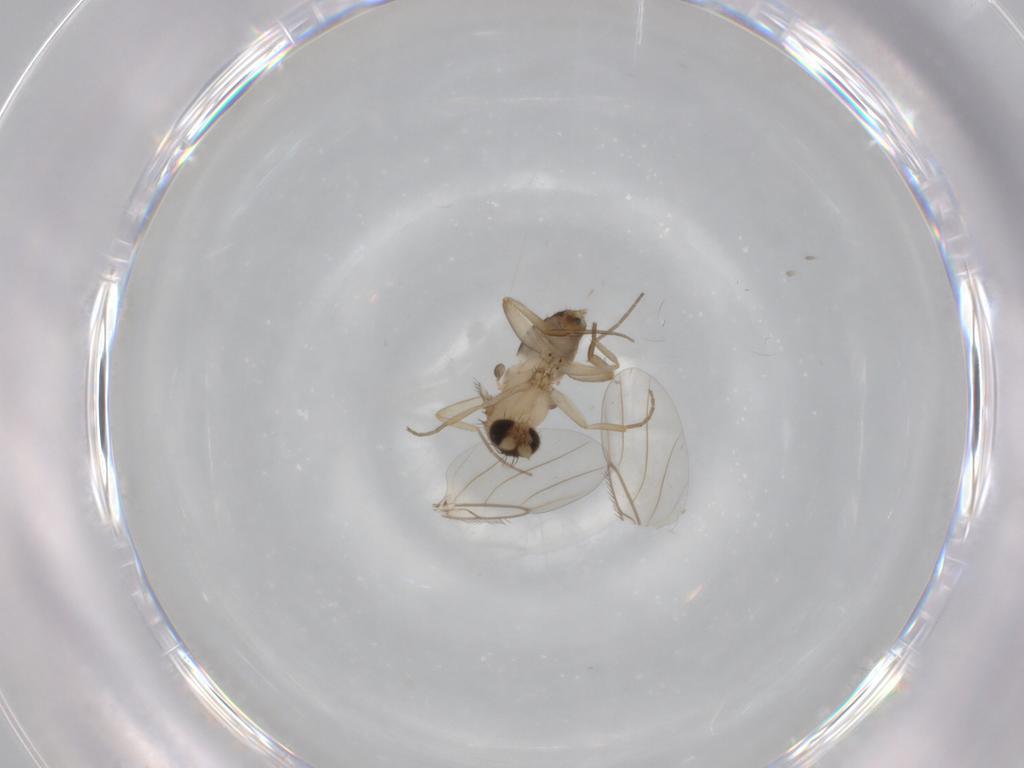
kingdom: Animalia
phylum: Arthropoda
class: Insecta
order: Diptera
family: Phoridae
